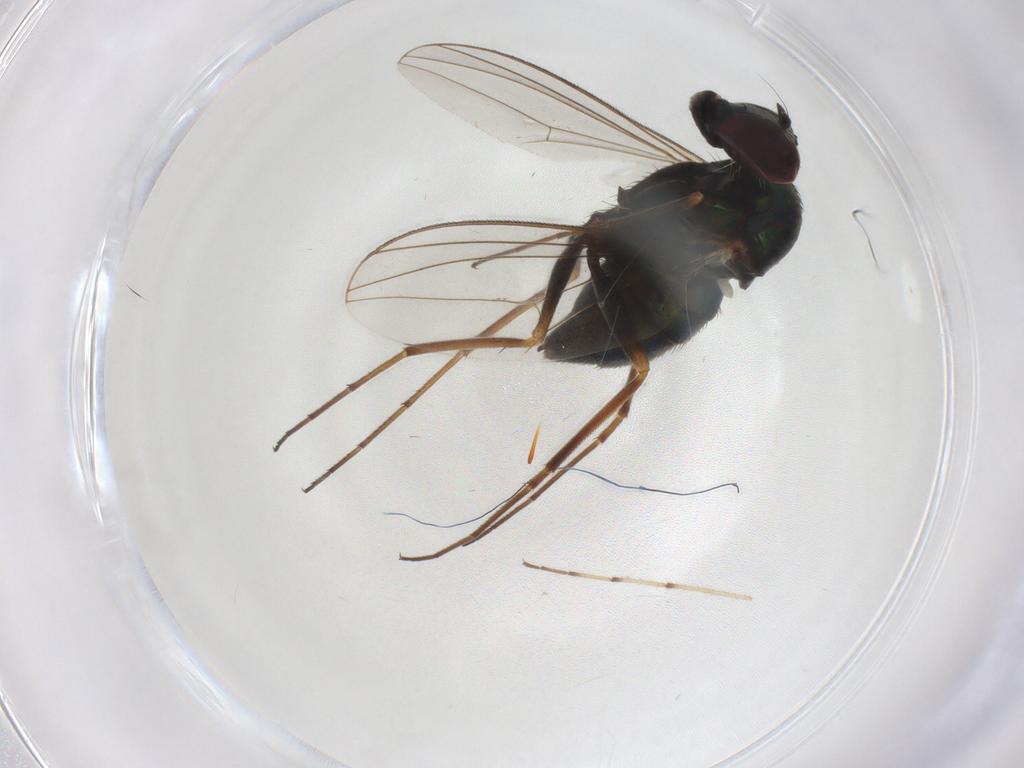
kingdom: Animalia
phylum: Arthropoda
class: Insecta
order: Diptera
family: Dolichopodidae
